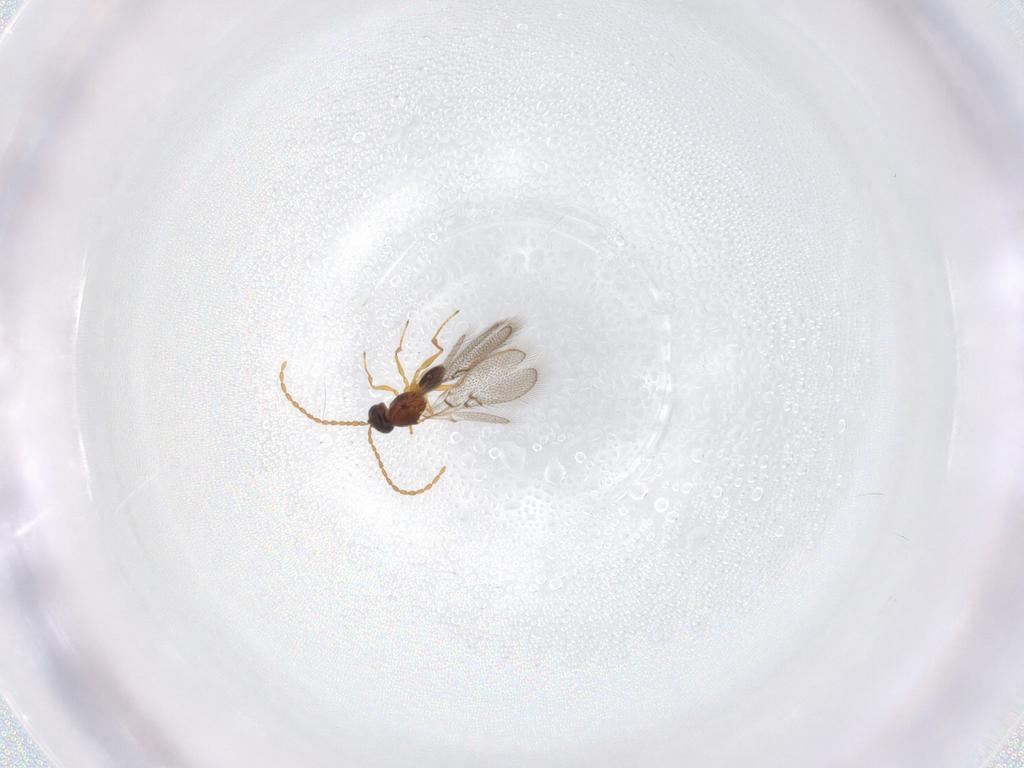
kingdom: Animalia
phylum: Arthropoda
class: Insecta
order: Hymenoptera
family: Figitidae
